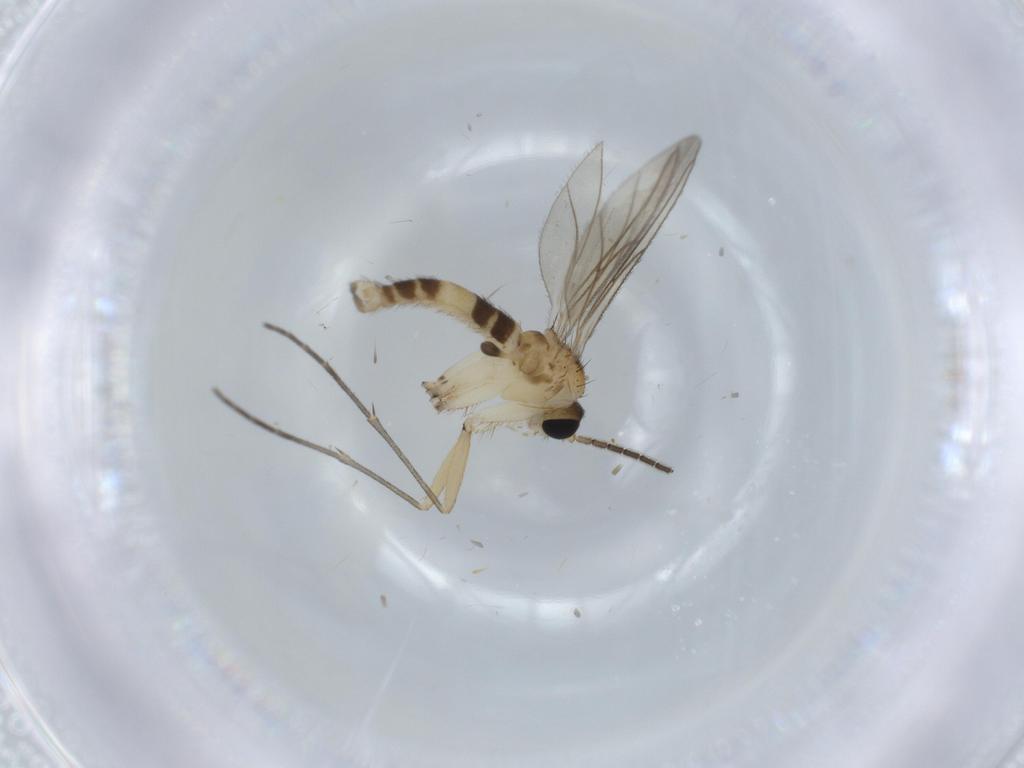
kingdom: Animalia
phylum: Arthropoda
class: Insecta
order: Diptera
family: Sciaridae
